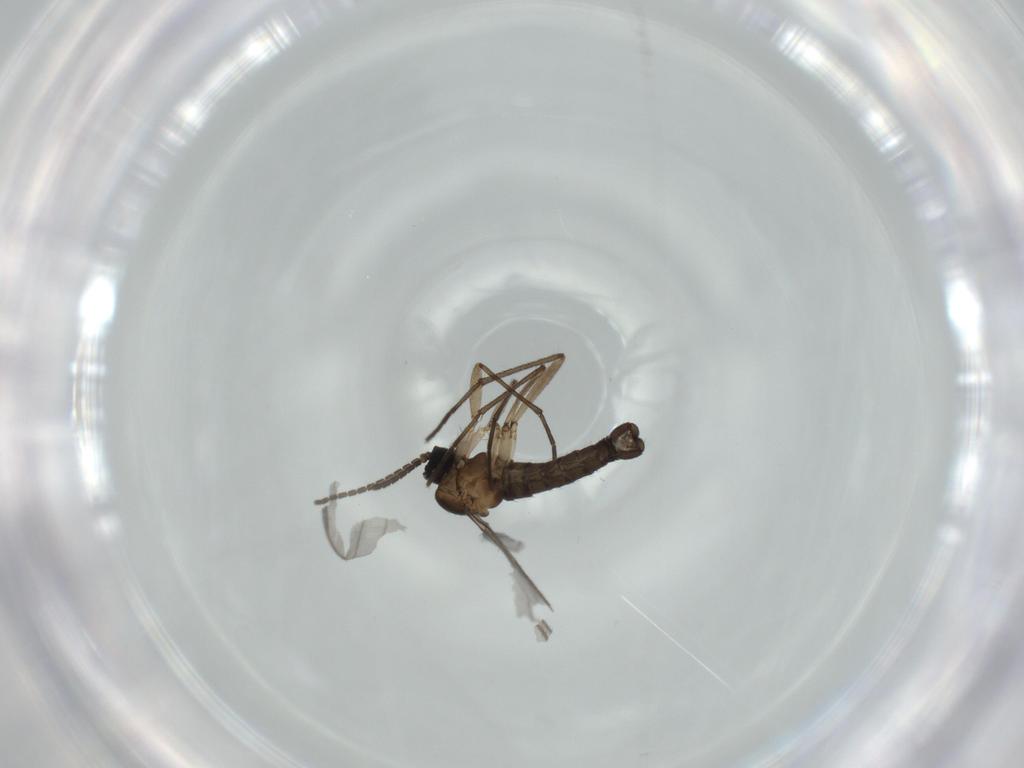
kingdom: Animalia
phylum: Arthropoda
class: Insecta
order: Diptera
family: Sciaridae
